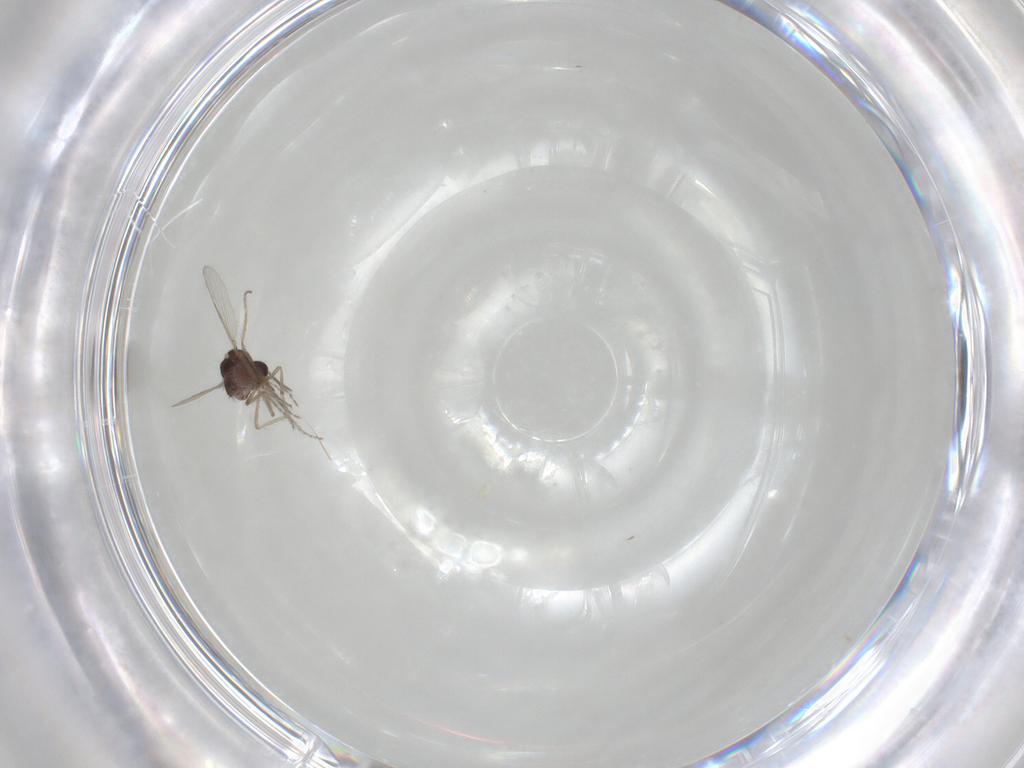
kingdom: Animalia
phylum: Arthropoda
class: Insecta
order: Diptera
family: Ceratopogonidae
